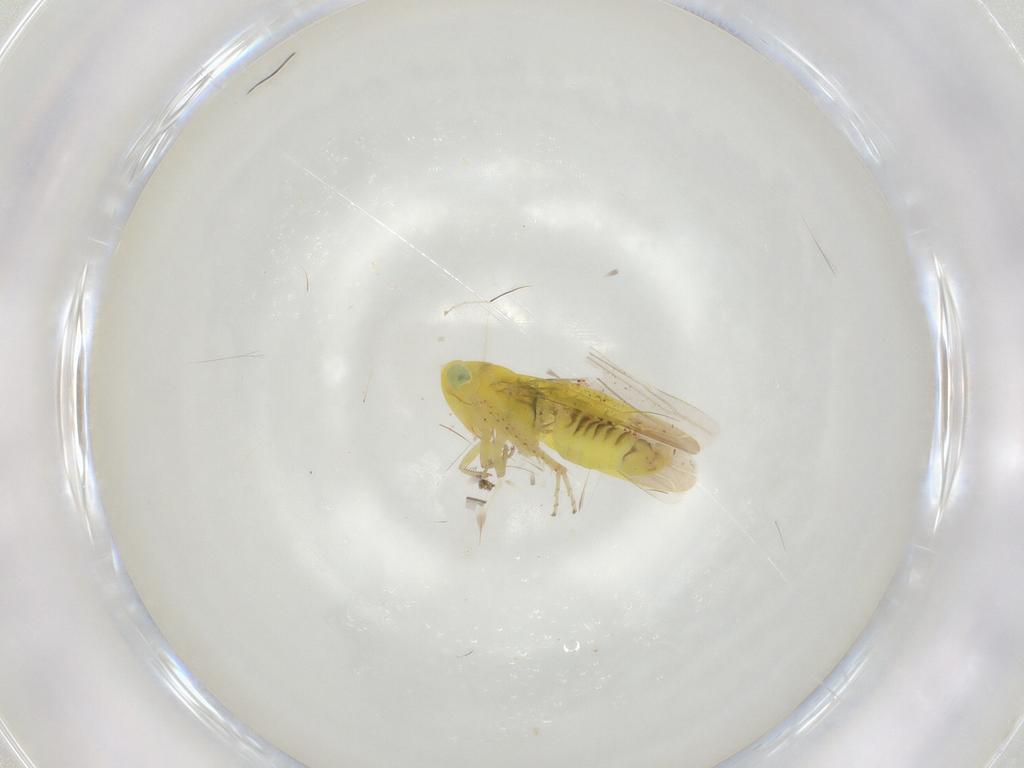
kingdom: Animalia
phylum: Arthropoda
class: Insecta
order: Hemiptera
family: Cicadellidae
